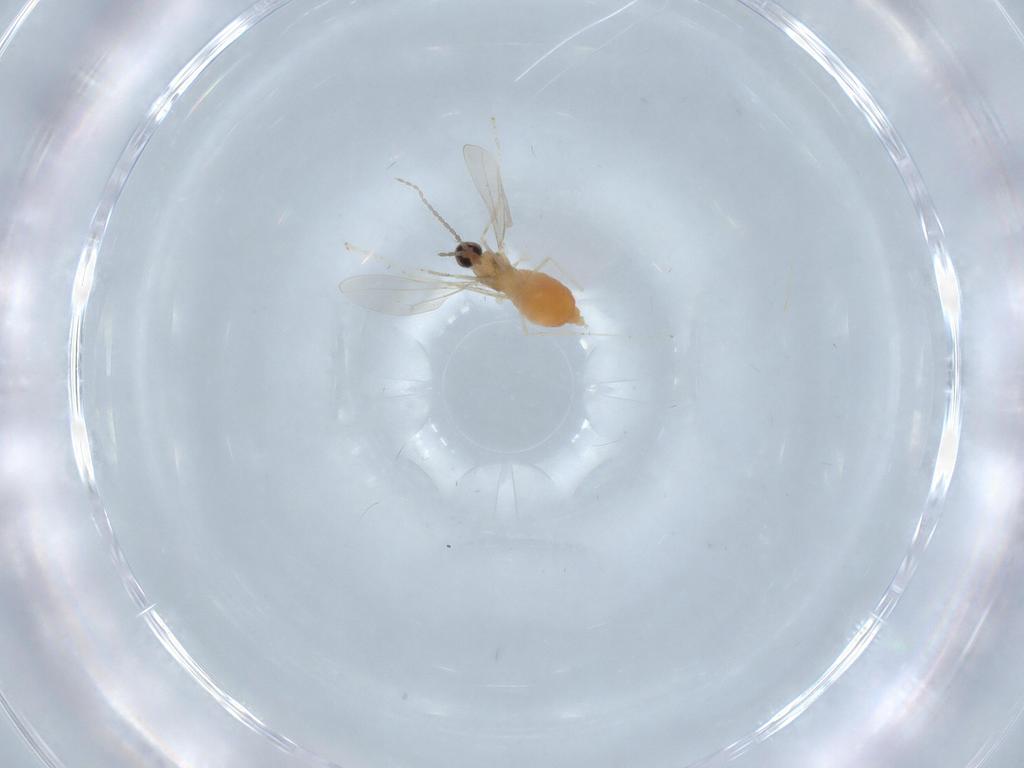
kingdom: Animalia
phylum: Arthropoda
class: Insecta
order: Diptera
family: Cecidomyiidae
